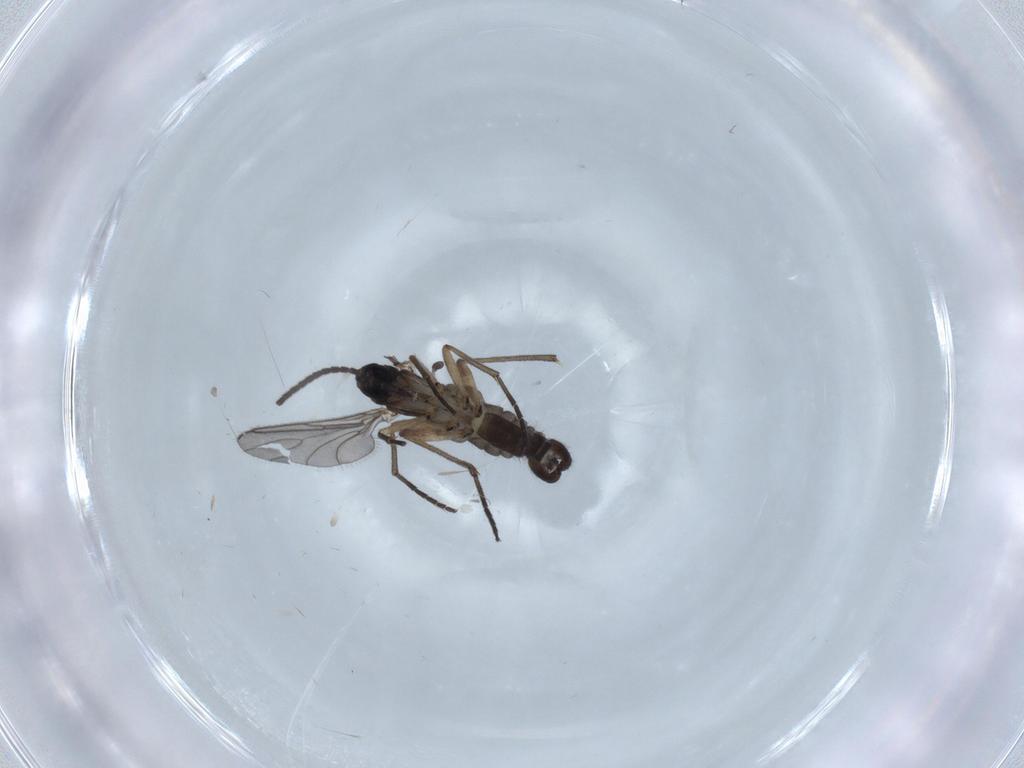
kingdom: Animalia
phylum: Arthropoda
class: Insecta
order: Diptera
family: Sciaridae
